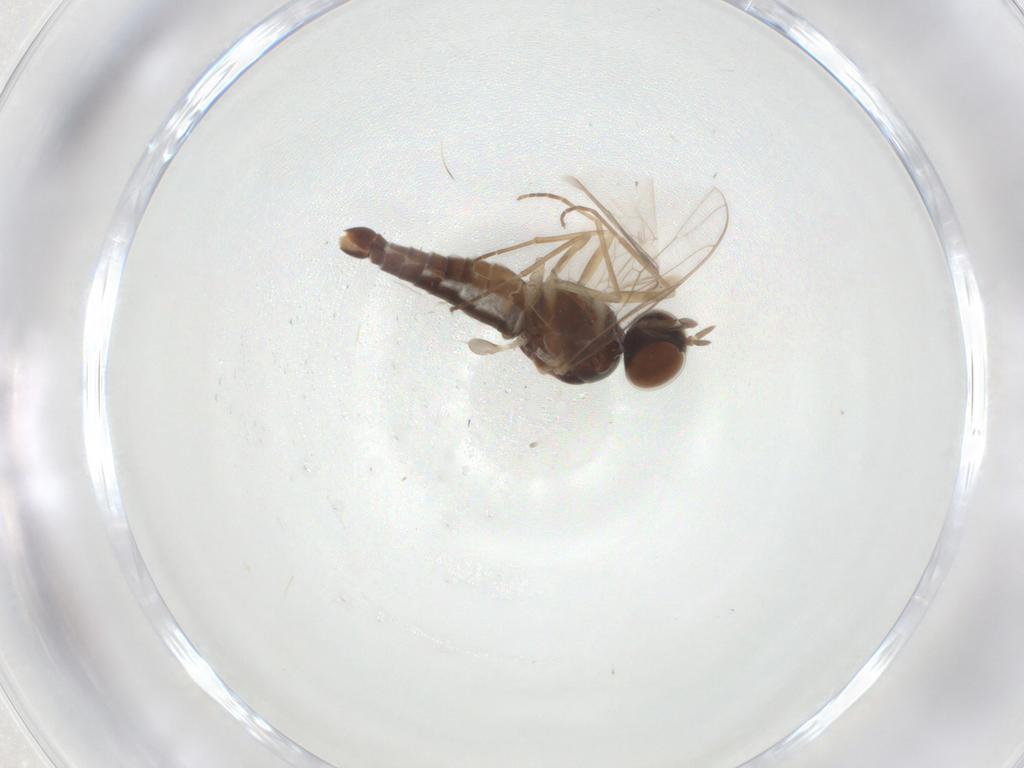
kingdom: Animalia
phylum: Arthropoda
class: Insecta
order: Diptera
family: Scenopinidae
